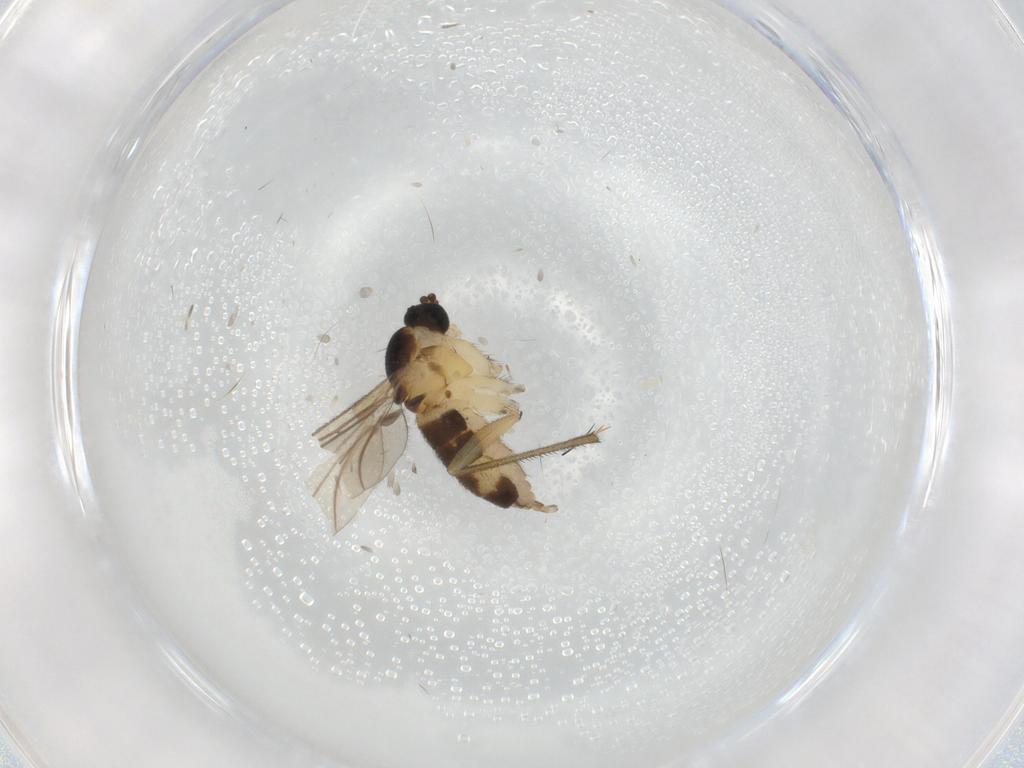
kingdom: Animalia
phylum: Arthropoda
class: Insecta
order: Diptera
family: Sciaridae
